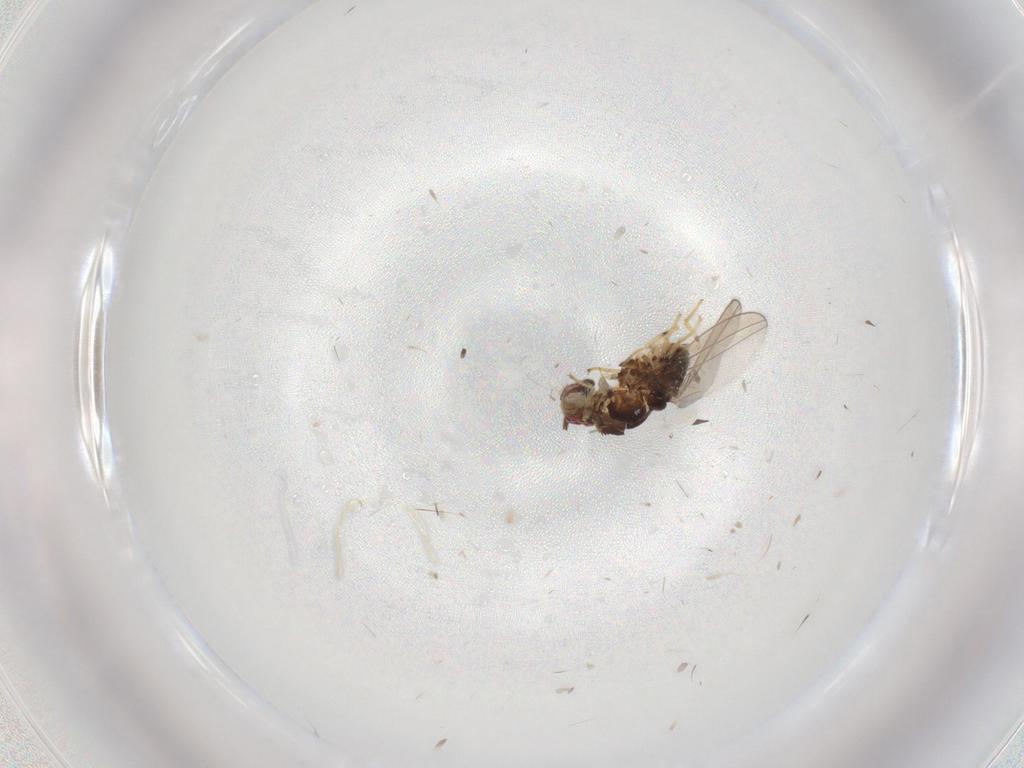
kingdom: Animalia
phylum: Arthropoda
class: Insecta
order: Diptera
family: Asteiidae
